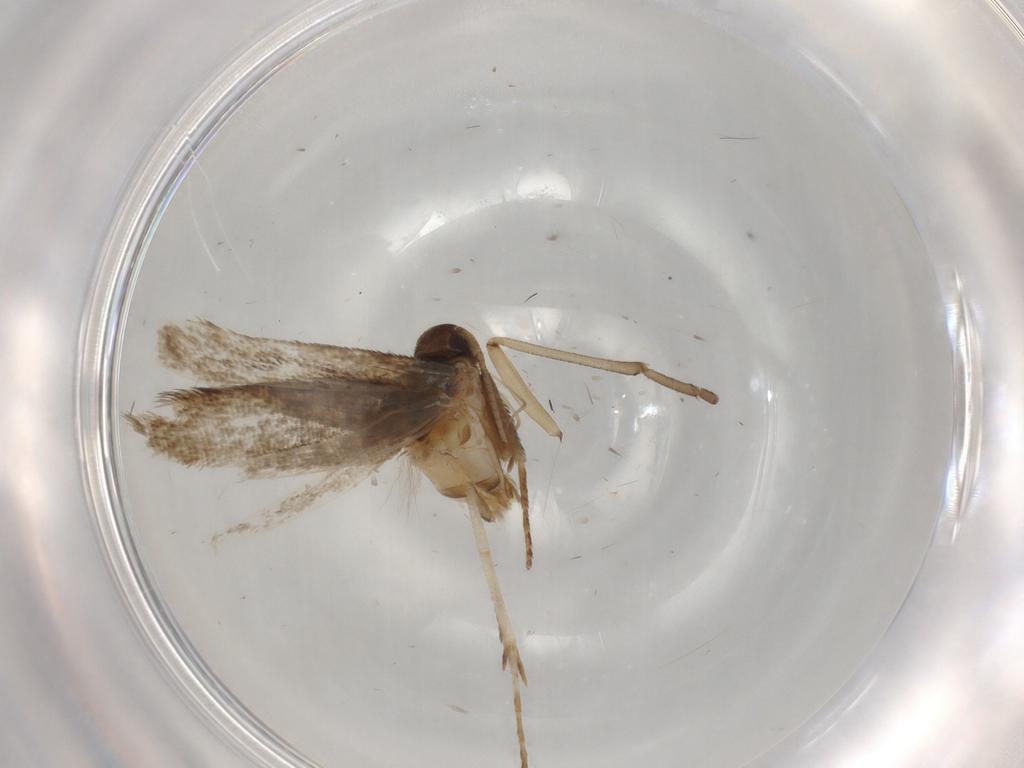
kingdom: Animalia
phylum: Arthropoda
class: Insecta
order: Lepidoptera
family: Cosmopterigidae
